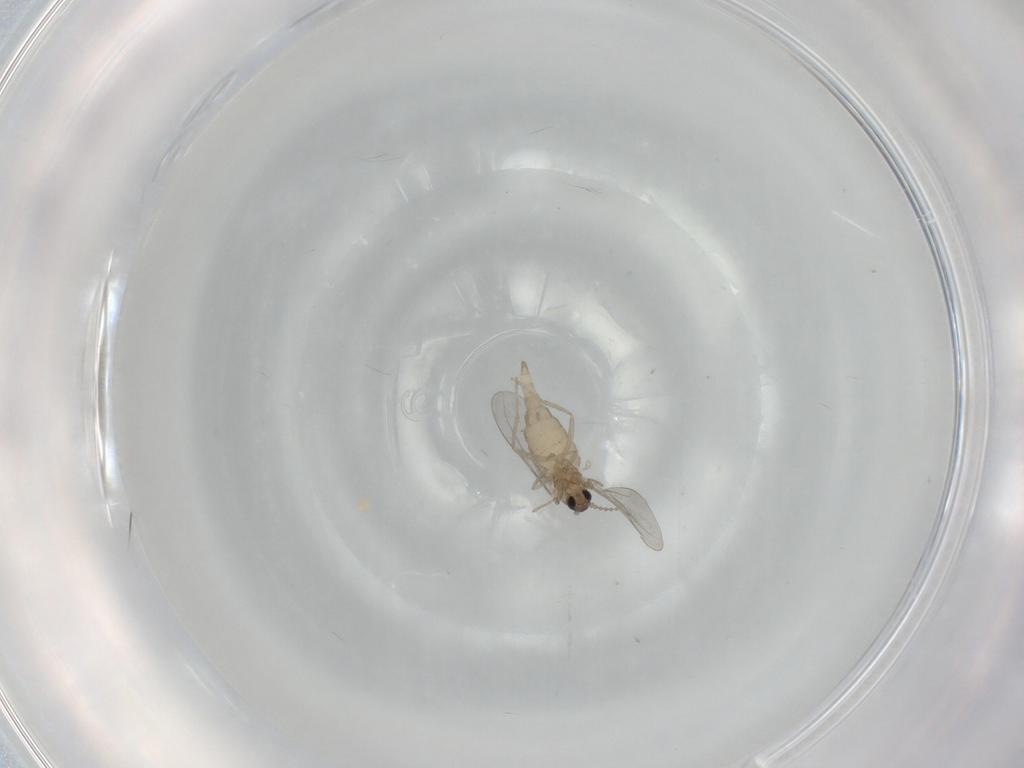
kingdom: Animalia
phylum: Arthropoda
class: Insecta
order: Diptera
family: Cecidomyiidae
